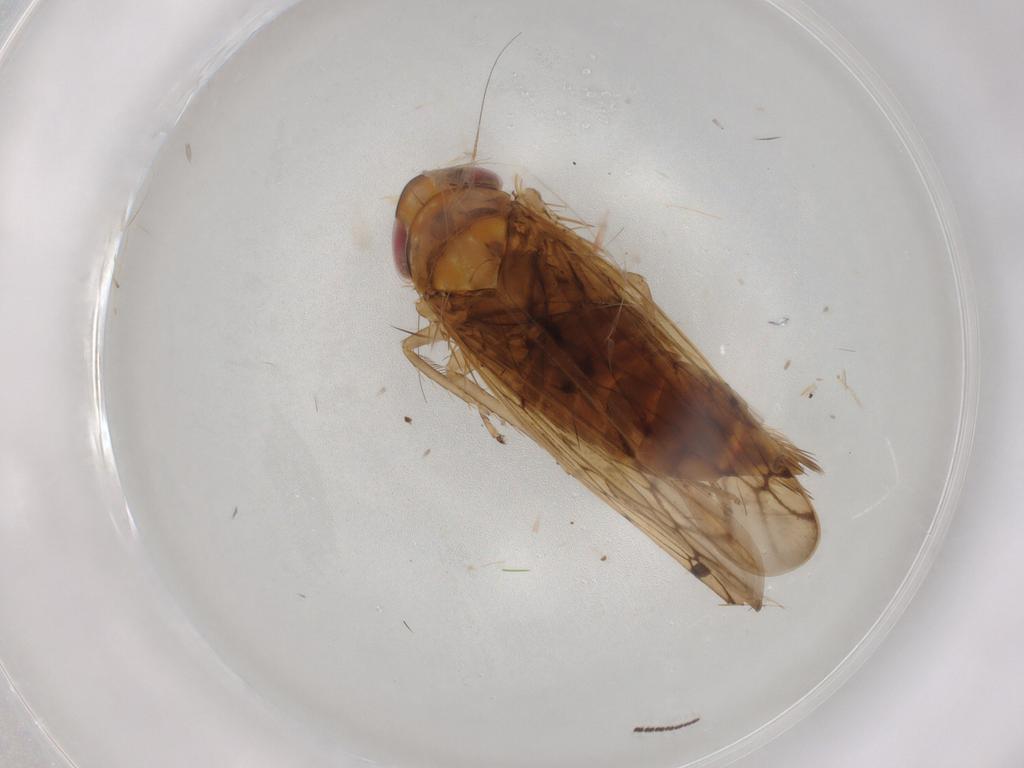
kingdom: Animalia
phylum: Arthropoda
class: Insecta
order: Hemiptera
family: Cicadellidae
